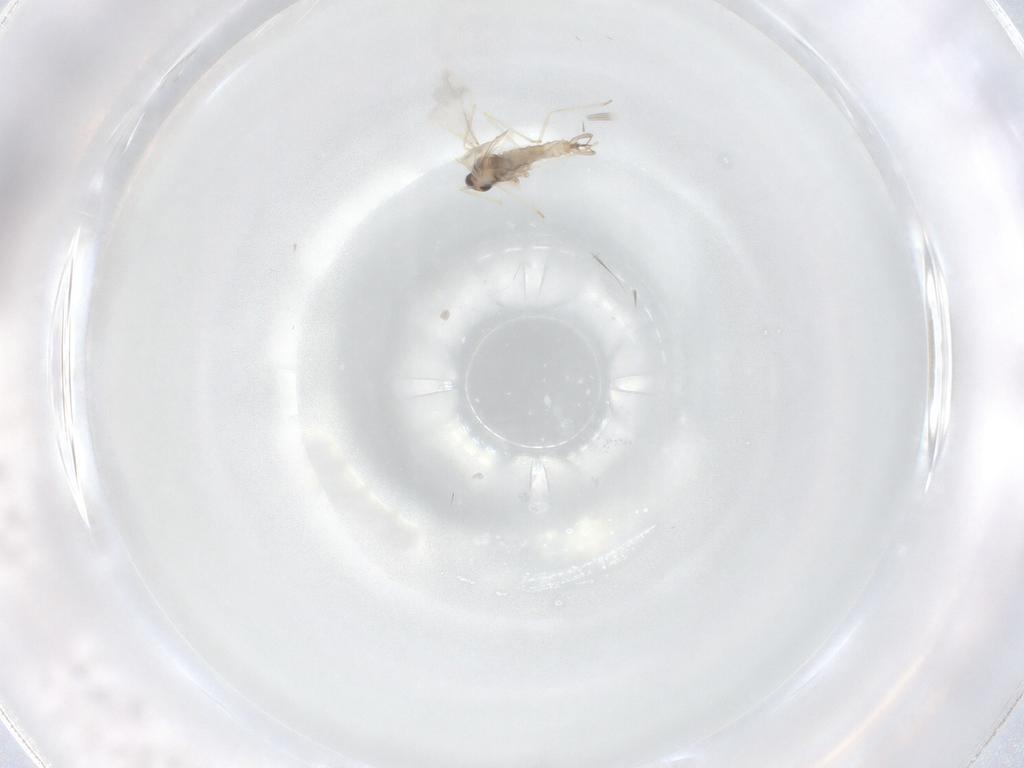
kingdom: Animalia
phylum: Arthropoda
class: Insecta
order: Diptera
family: Cecidomyiidae
